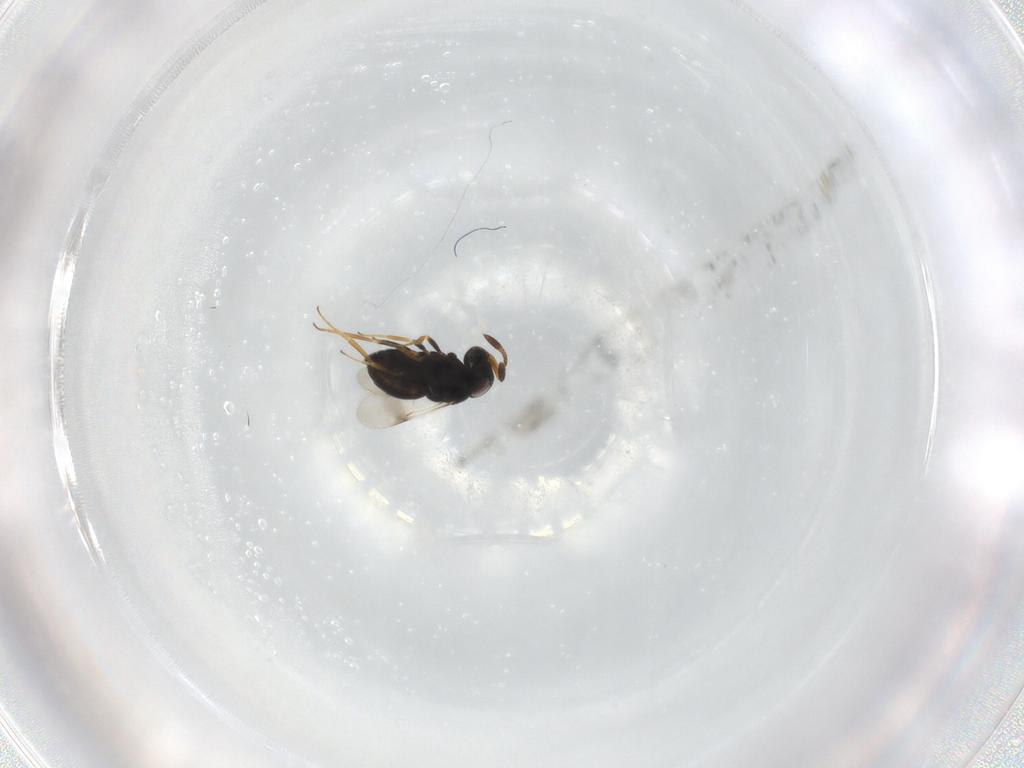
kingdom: Animalia
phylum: Arthropoda
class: Insecta
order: Hymenoptera
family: Scelionidae
